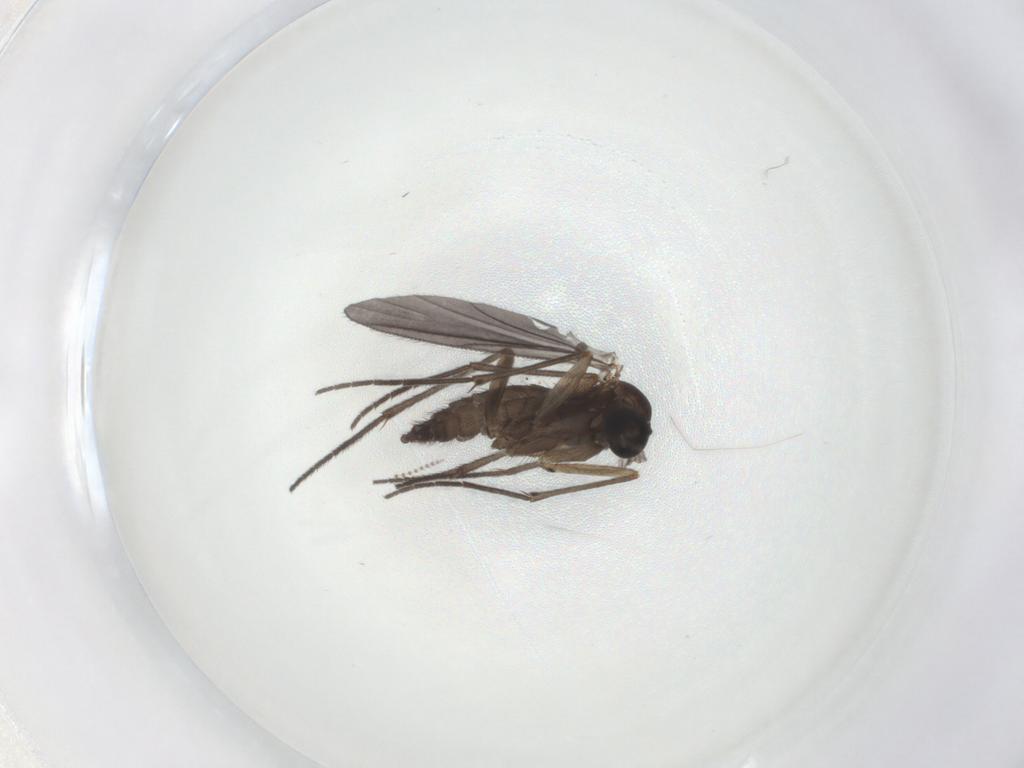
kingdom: Animalia
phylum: Arthropoda
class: Insecta
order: Diptera
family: Sciaridae
